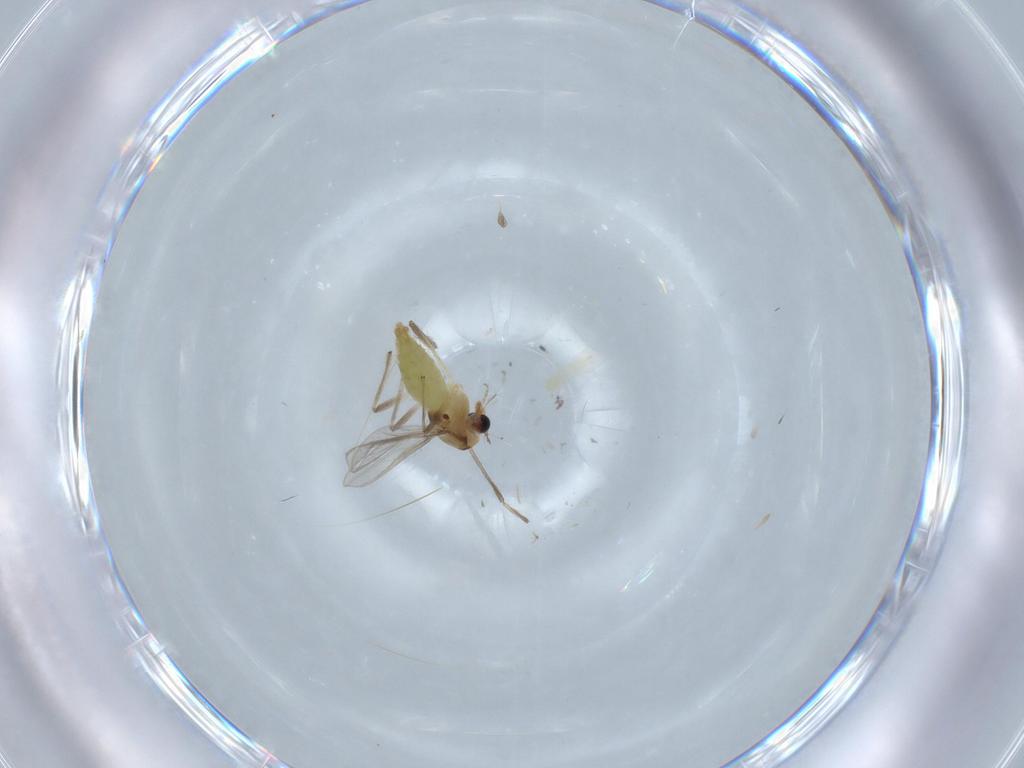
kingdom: Animalia
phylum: Arthropoda
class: Insecta
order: Diptera
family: Chironomidae
